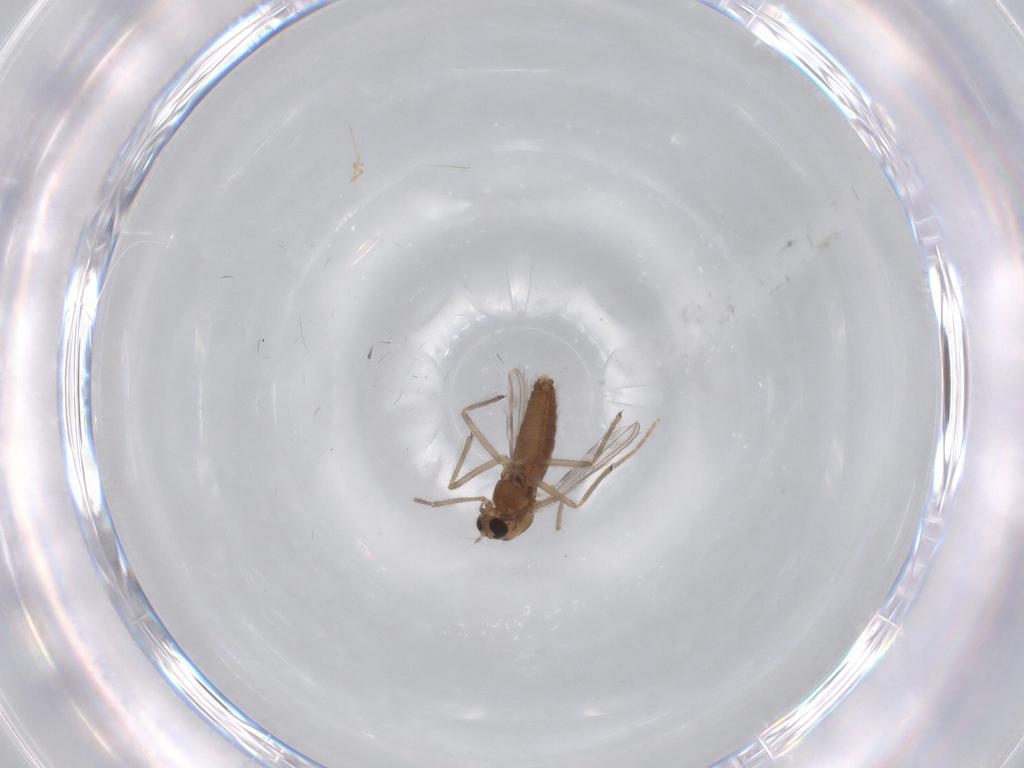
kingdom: Animalia
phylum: Arthropoda
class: Insecta
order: Diptera
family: Chironomidae
